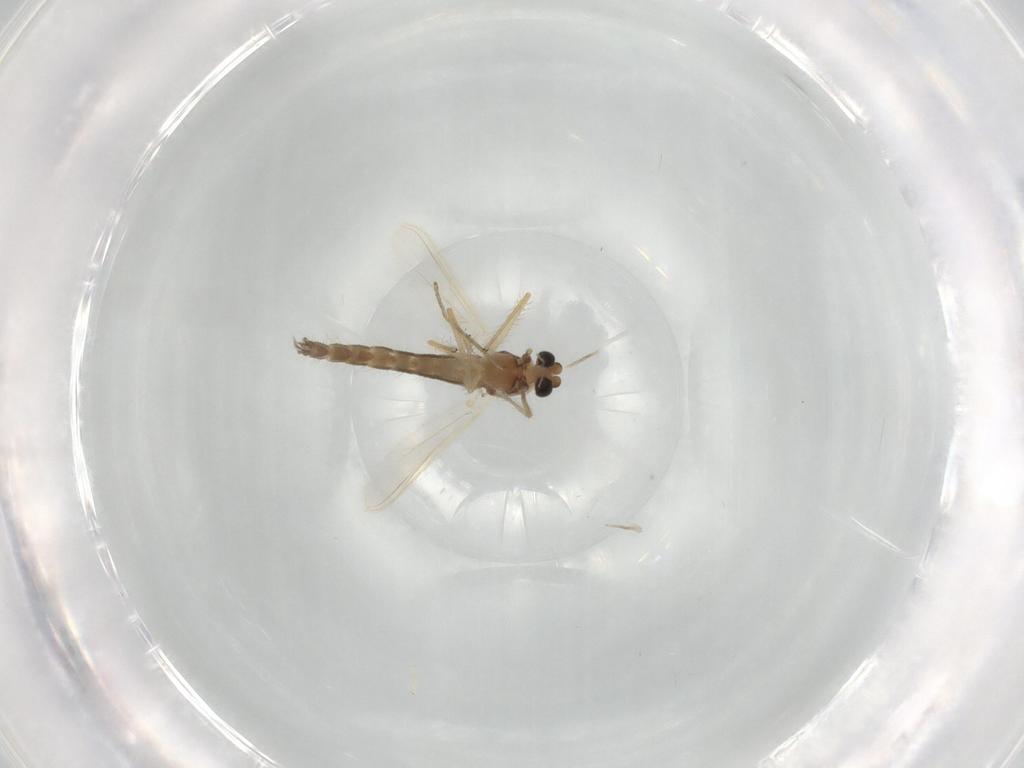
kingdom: Animalia
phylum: Arthropoda
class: Insecta
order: Diptera
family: Chironomidae
